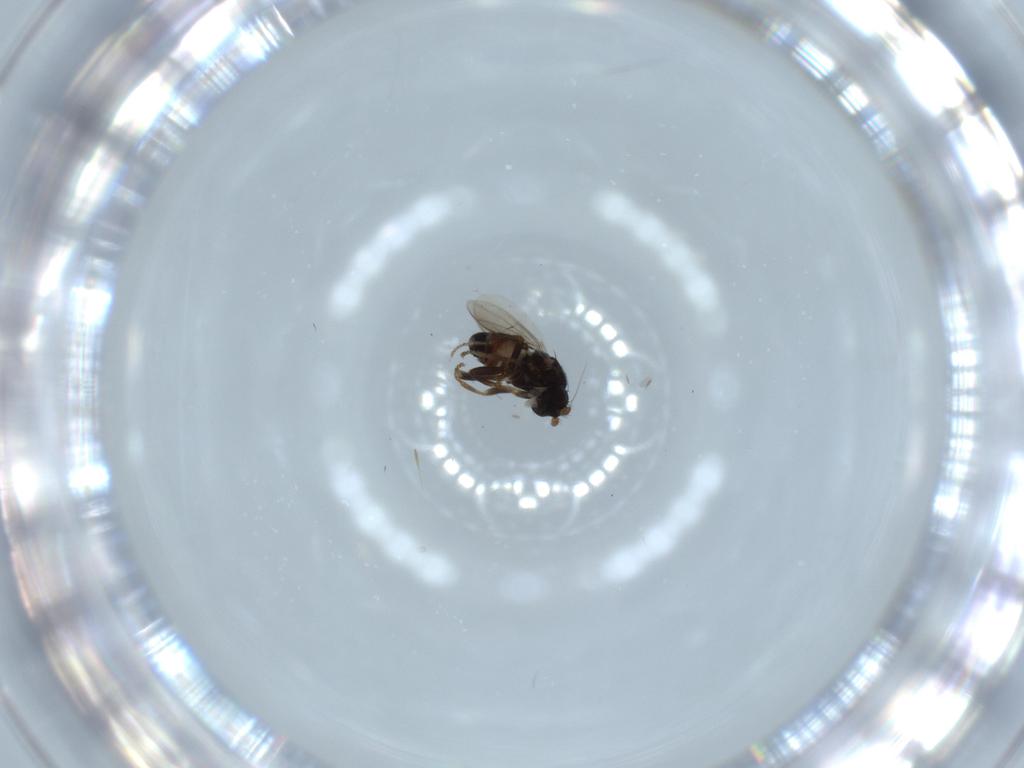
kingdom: Animalia
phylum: Arthropoda
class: Insecta
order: Diptera
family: Sphaeroceridae
